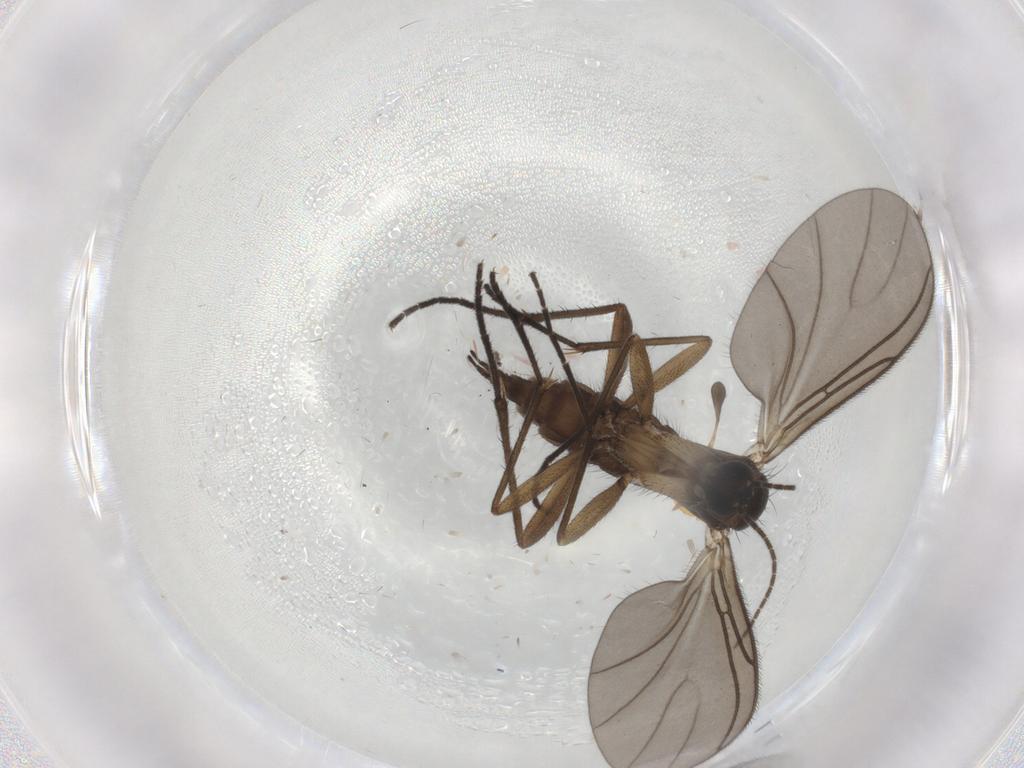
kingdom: Animalia
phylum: Arthropoda
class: Insecta
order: Diptera
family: Sciaridae
